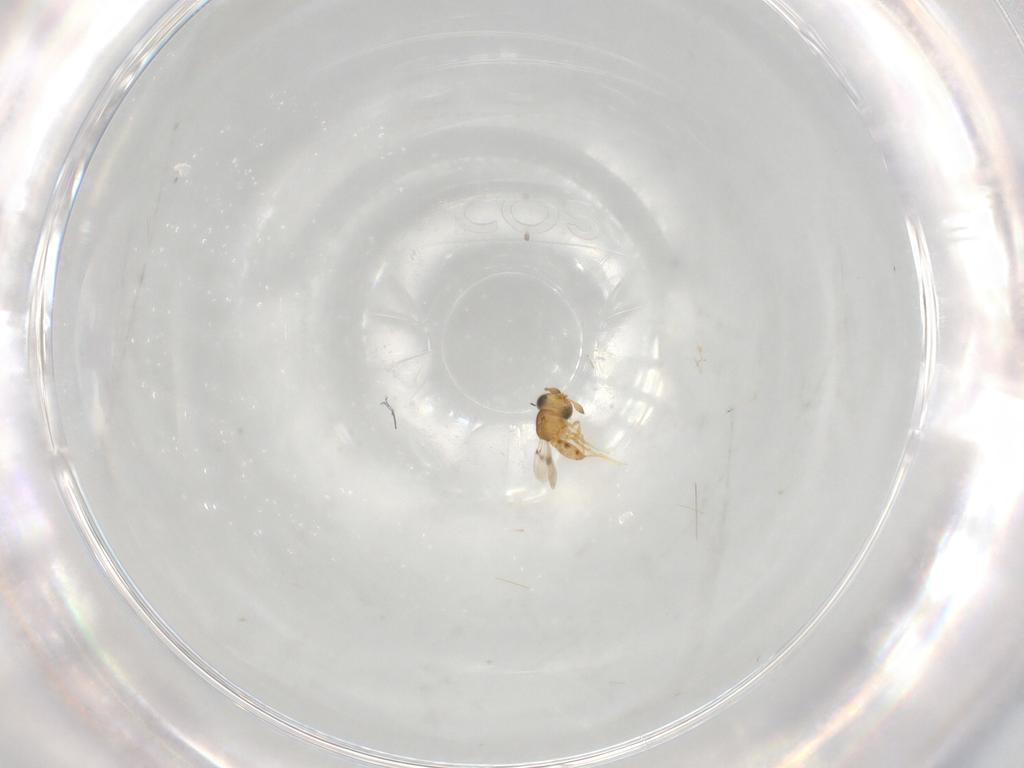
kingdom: Animalia
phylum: Arthropoda
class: Insecta
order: Hymenoptera
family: Scelionidae
